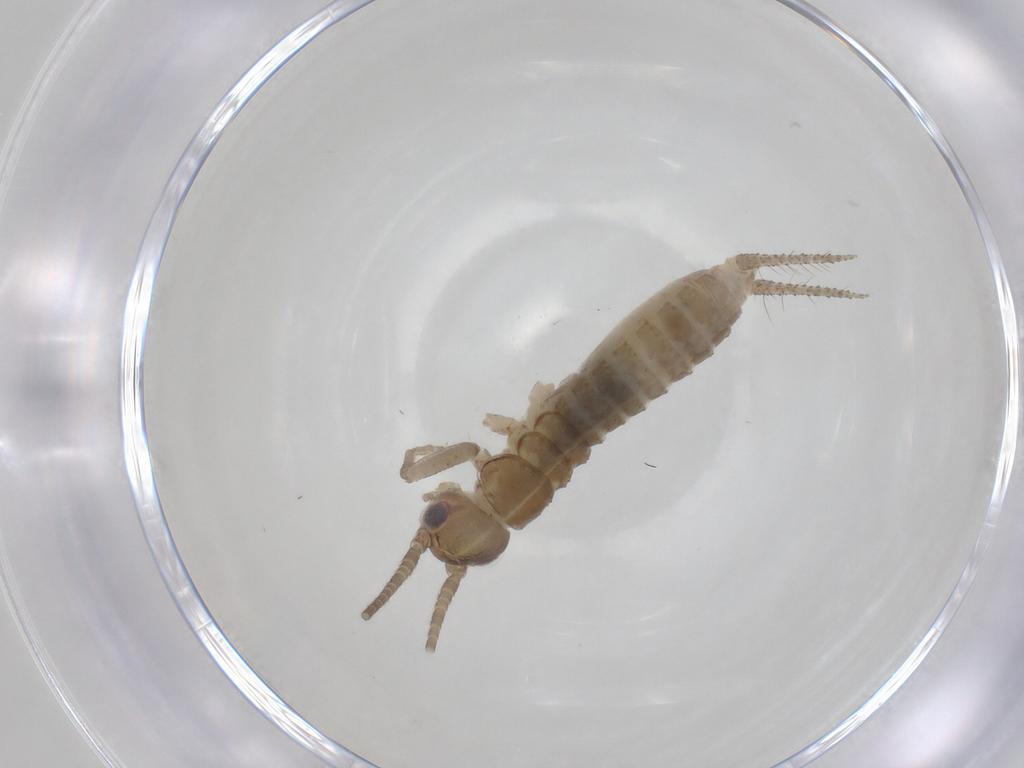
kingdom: Animalia
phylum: Arthropoda
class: Insecta
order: Orthoptera
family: Gryllidae
